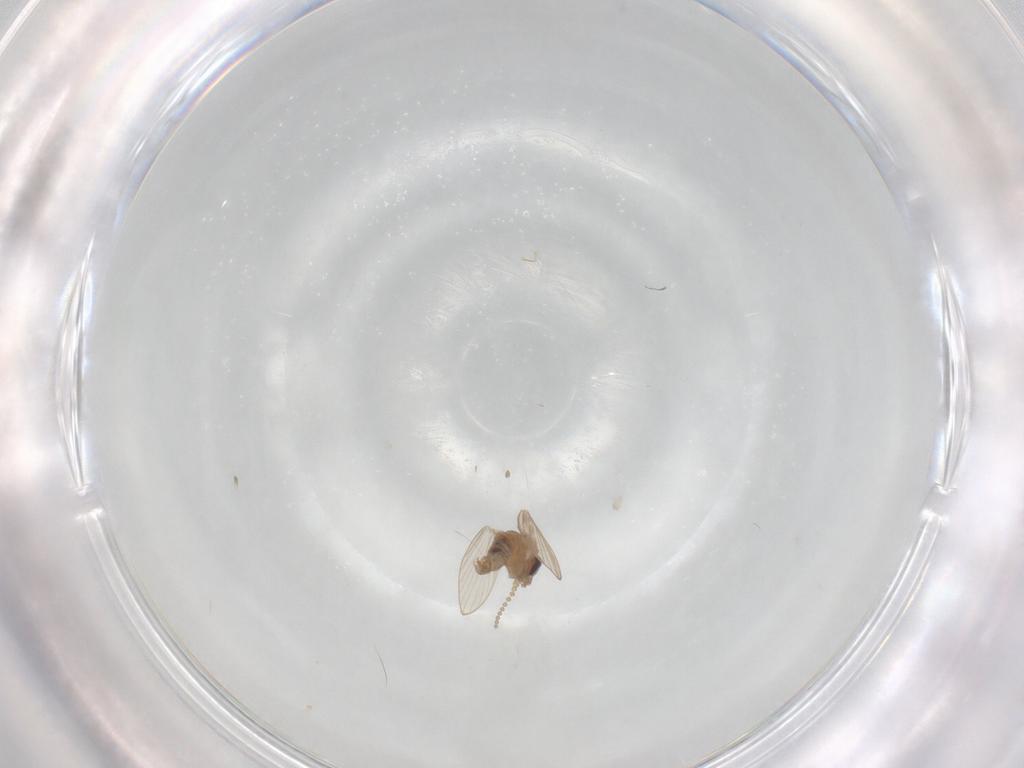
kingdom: Animalia
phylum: Arthropoda
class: Insecta
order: Diptera
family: Psychodidae
